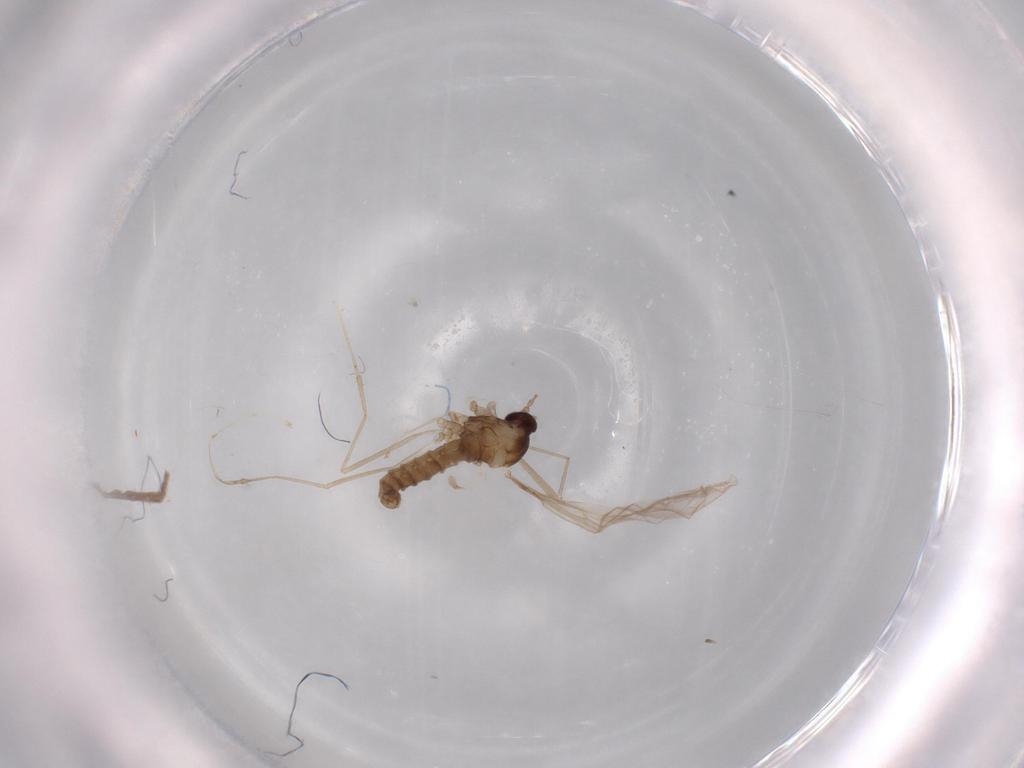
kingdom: Animalia
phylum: Arthropoda
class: Insecta
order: Diptera
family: Cecidomyiidae
